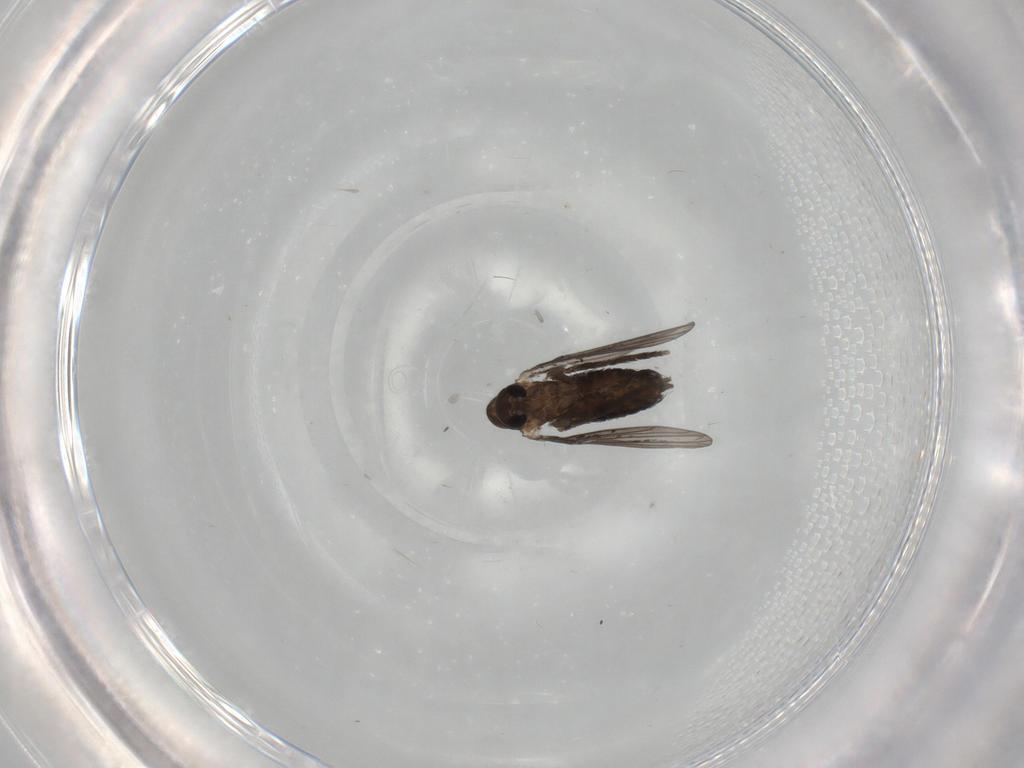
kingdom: Animalia
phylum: Arthropoda
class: Insecta
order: Diptera
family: Psychodidae
